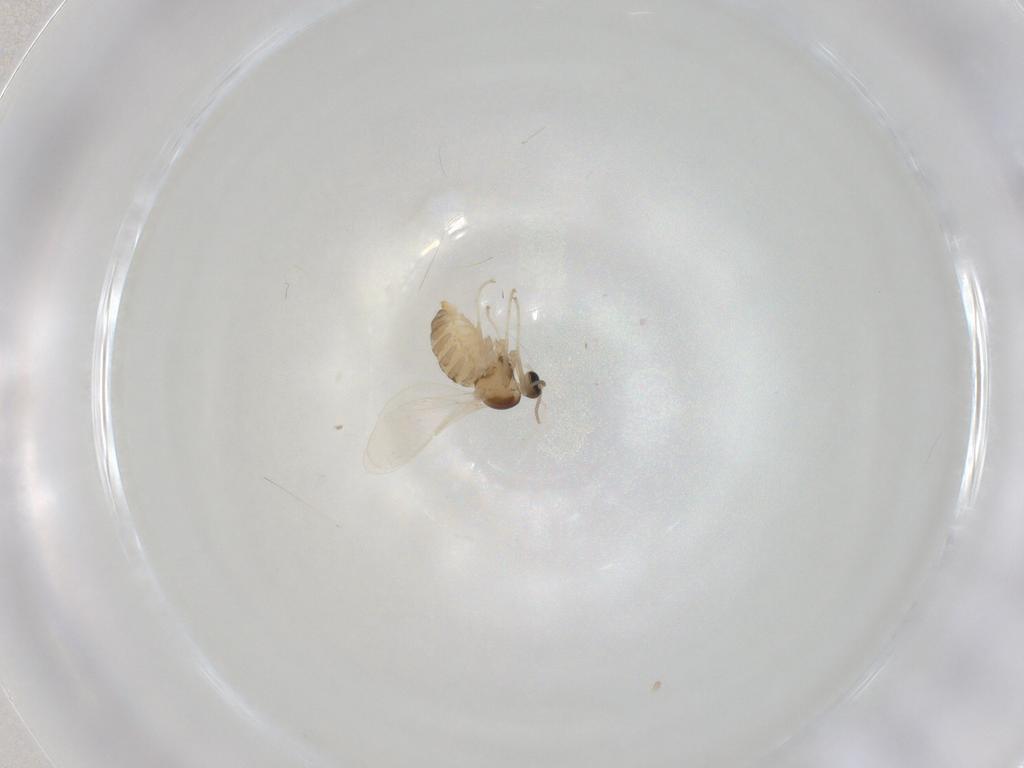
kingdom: Animalia
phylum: Arthropoda
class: Insecta
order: Diptera
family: Cecidomyiidae
